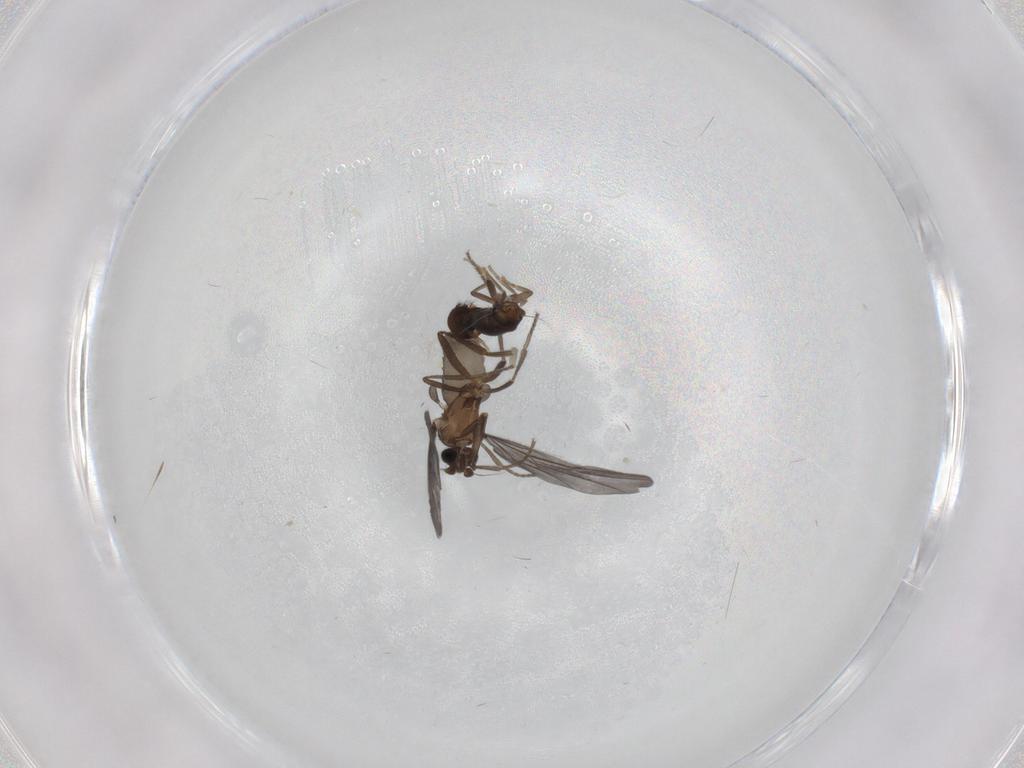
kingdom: Animalia
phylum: Arthropoda
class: Insecta
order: Diptera
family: Phoridae
